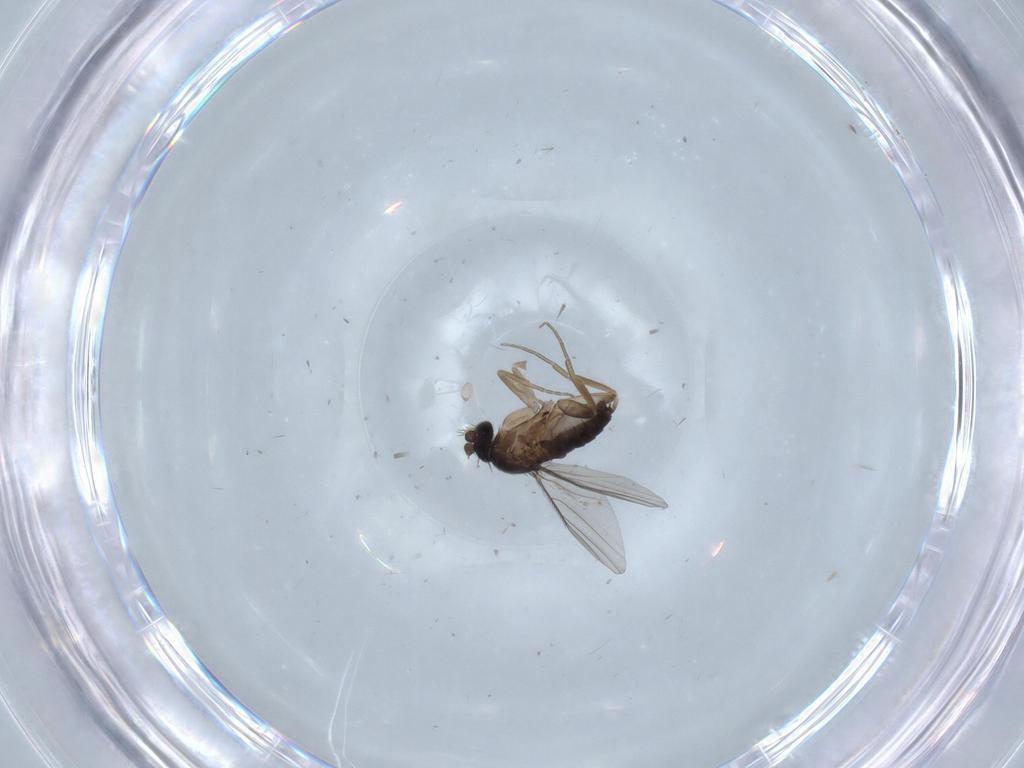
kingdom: Animalia
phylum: Arthropoda
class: Insecta
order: Diptera
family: Phoridae
